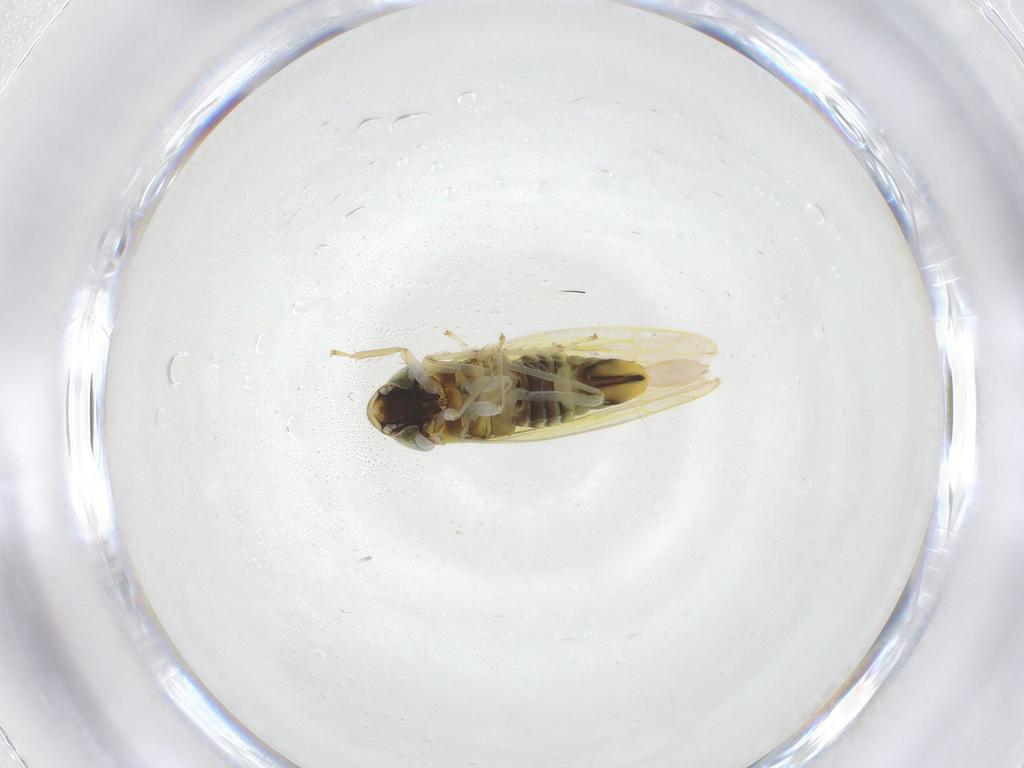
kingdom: Animalia
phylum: Arthropoda
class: Insecta
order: Hemiptera
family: Cicadellidae
